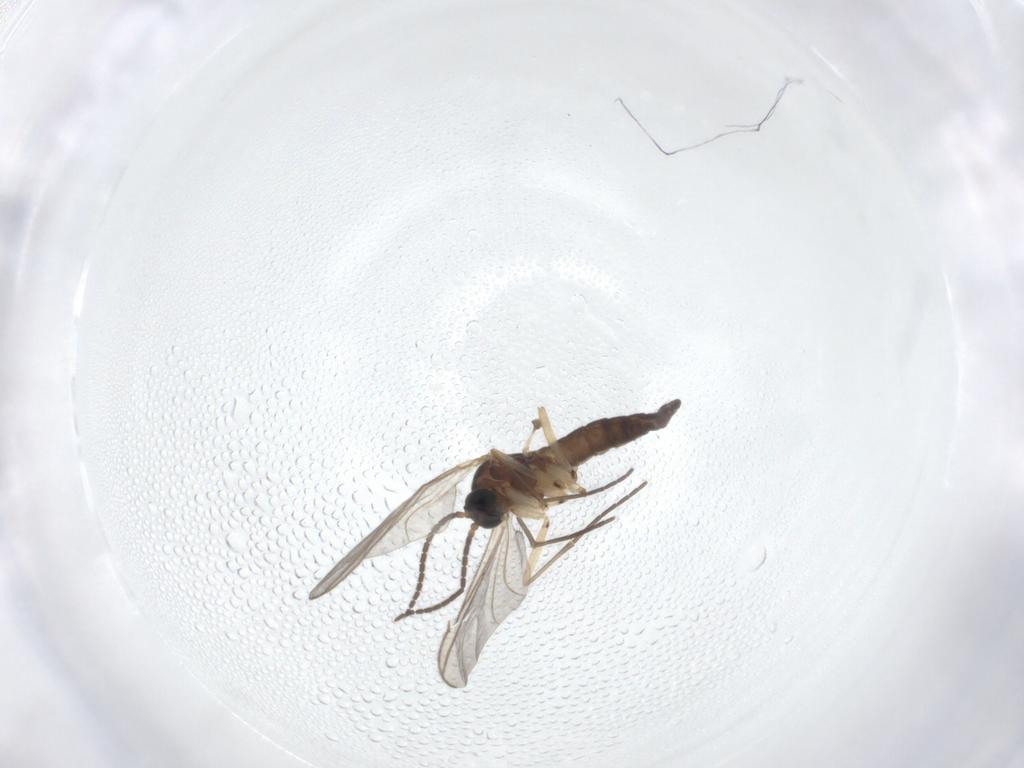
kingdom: Animalia
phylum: Arthropoda
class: Insecta
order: Diptera
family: Sciaridae
